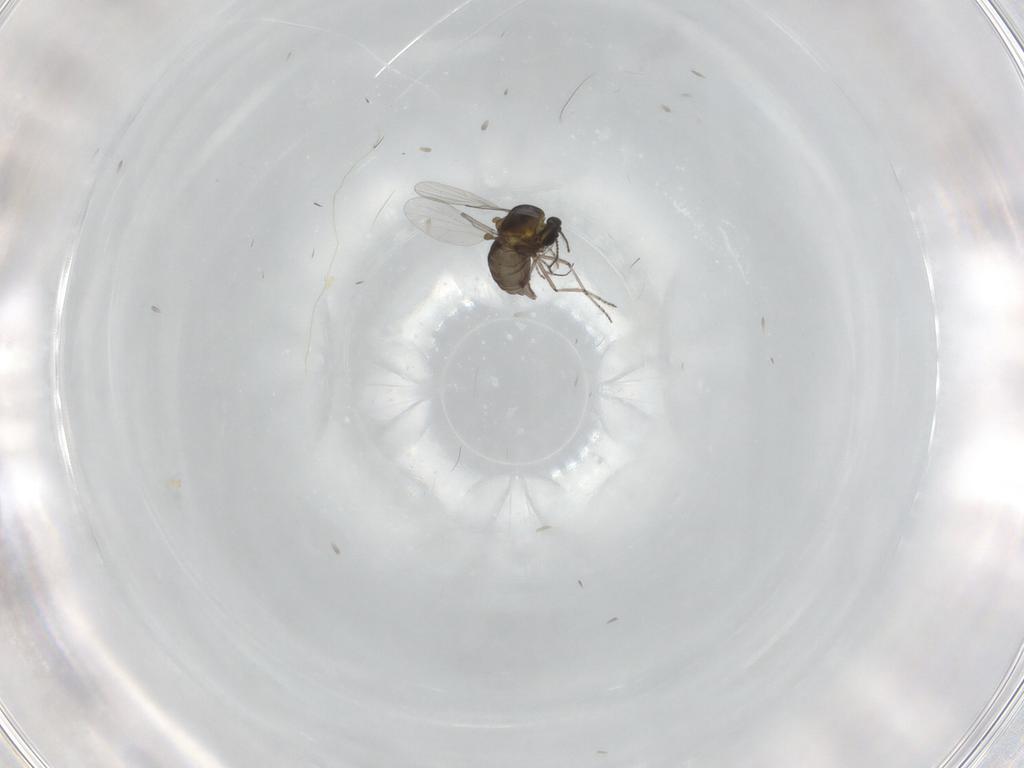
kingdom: Animalia
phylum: Arthropoda
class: Insecta
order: Diptera
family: Ceratopogonidae
